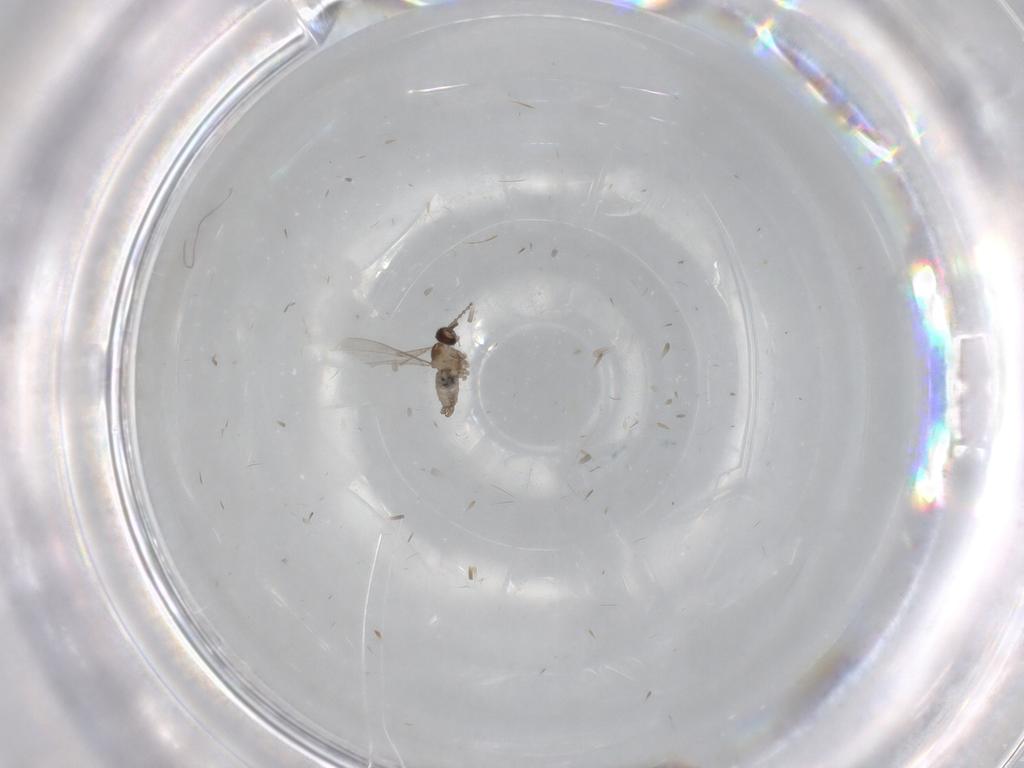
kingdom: Animalia
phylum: Arthropoda
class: Insecta
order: Diptera
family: Cecidomyiidae
